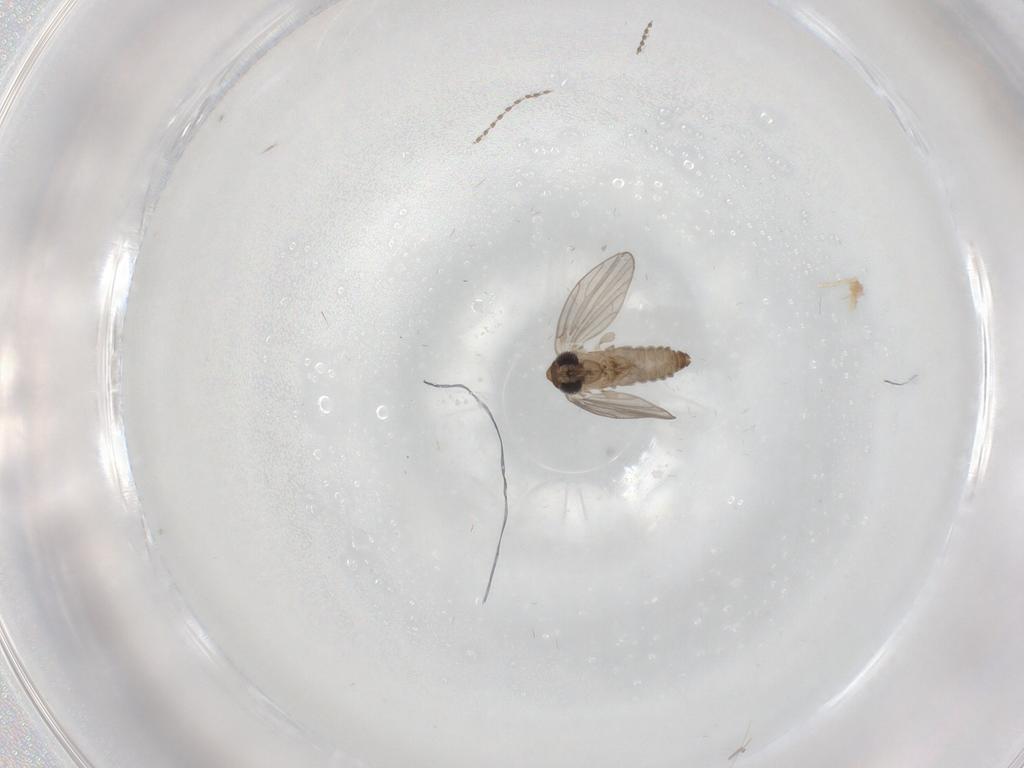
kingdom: Animalia
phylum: Arthropoda
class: Insecta
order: Diptera
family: Psychodidae
